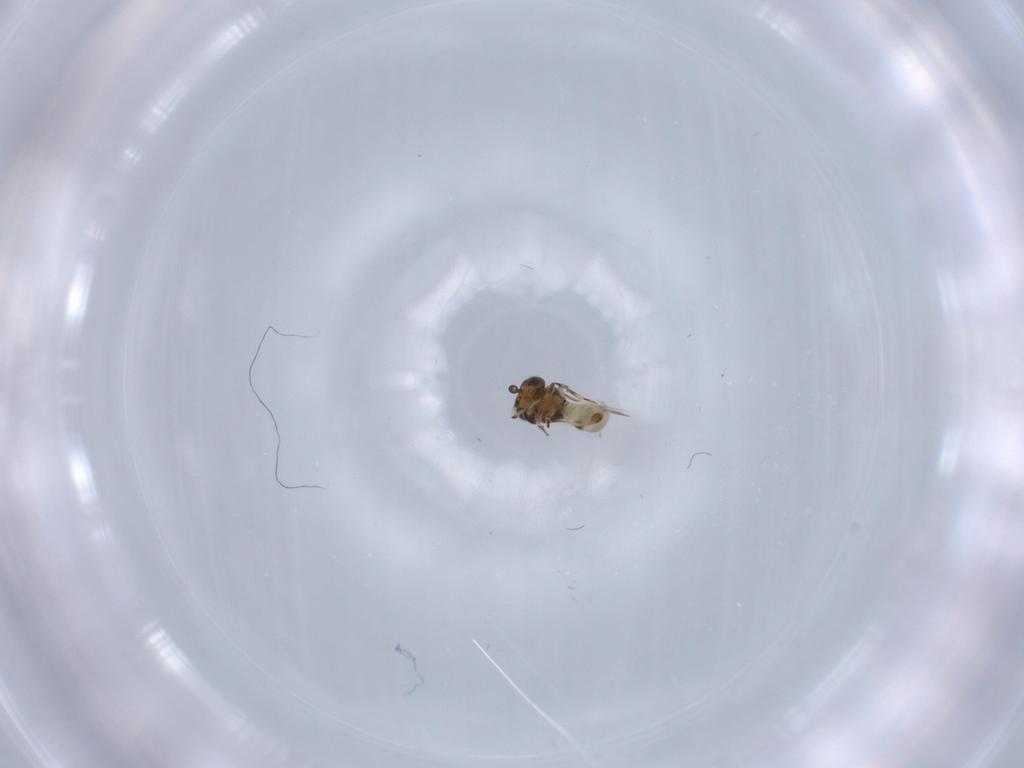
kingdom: Animalia
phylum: Arthropoda
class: Arachnida
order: Araneae
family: Pholcidae
